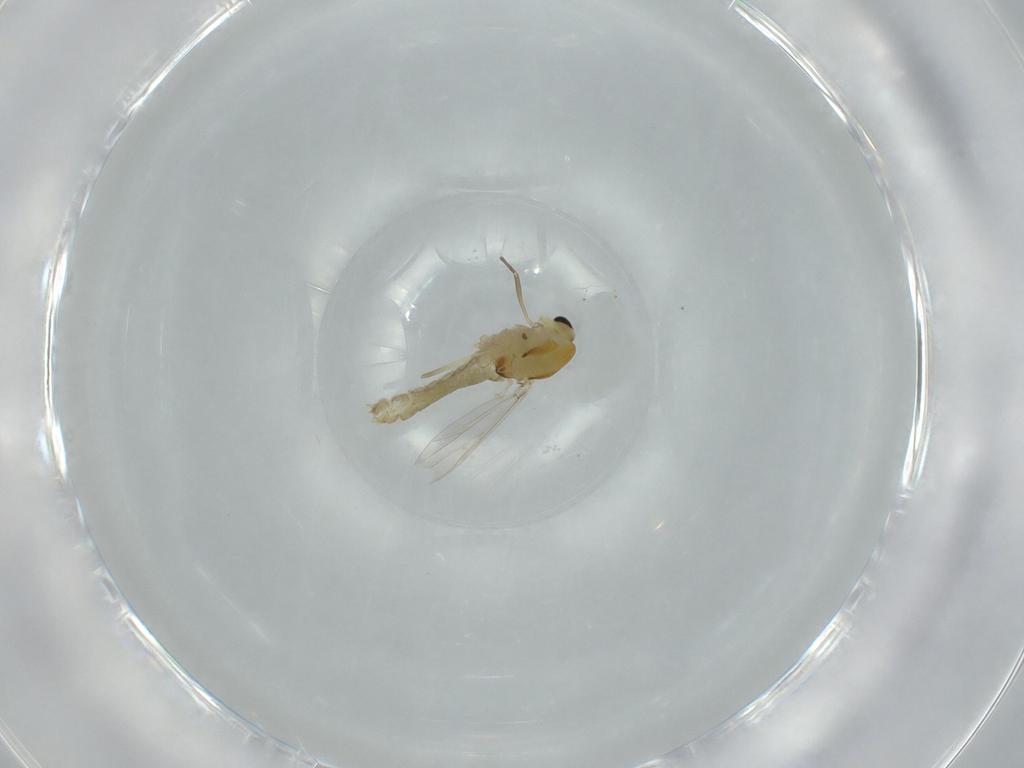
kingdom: Animalia
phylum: Arthropoda
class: Insecta
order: Diptera
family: Chironomidae
